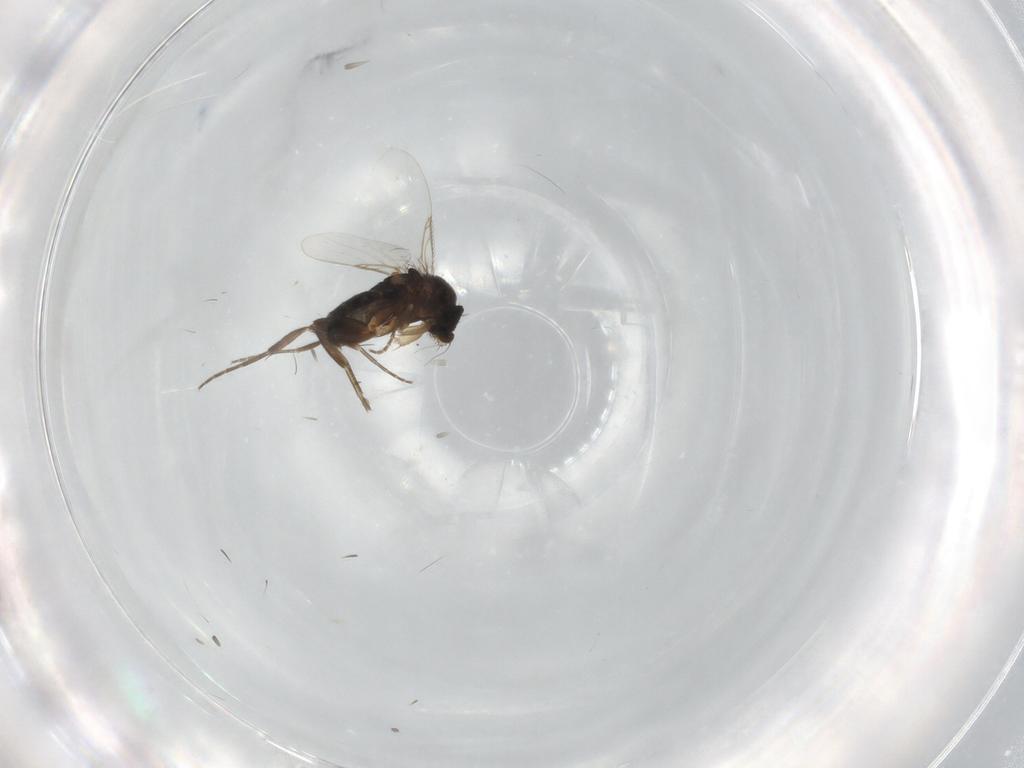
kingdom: Animalia
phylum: Arthropoda
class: Insecta
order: Diptera
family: Phoridae
